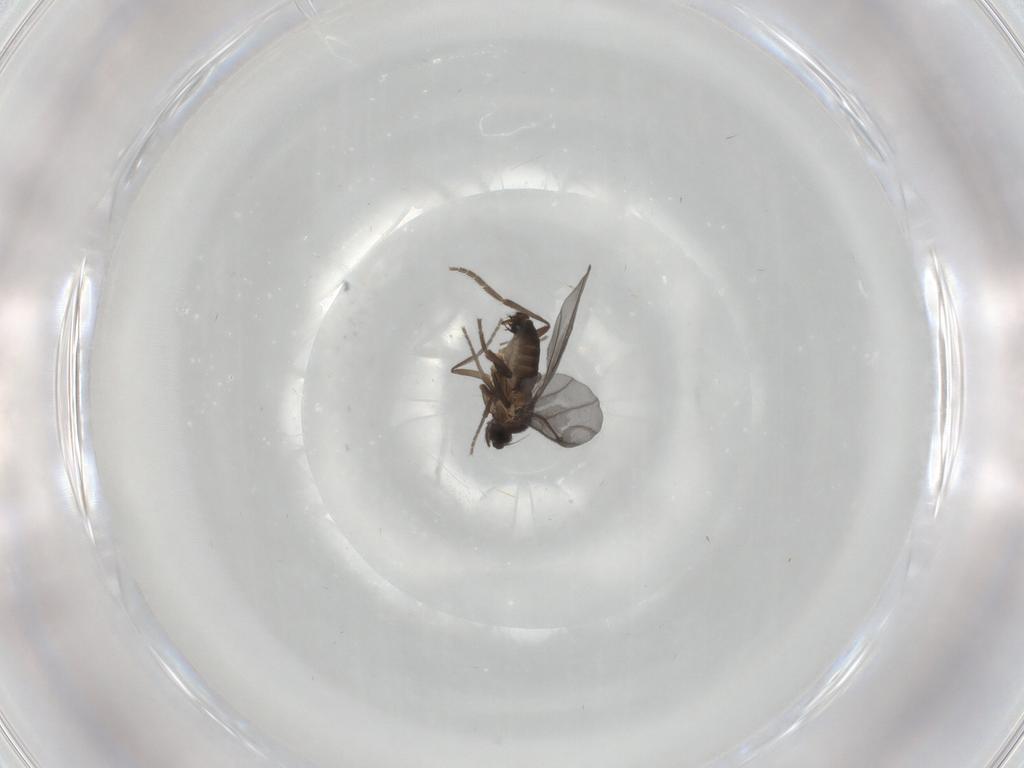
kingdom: Animalia
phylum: Arthropoda
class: Insecta
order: Diptera
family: Phoridae
